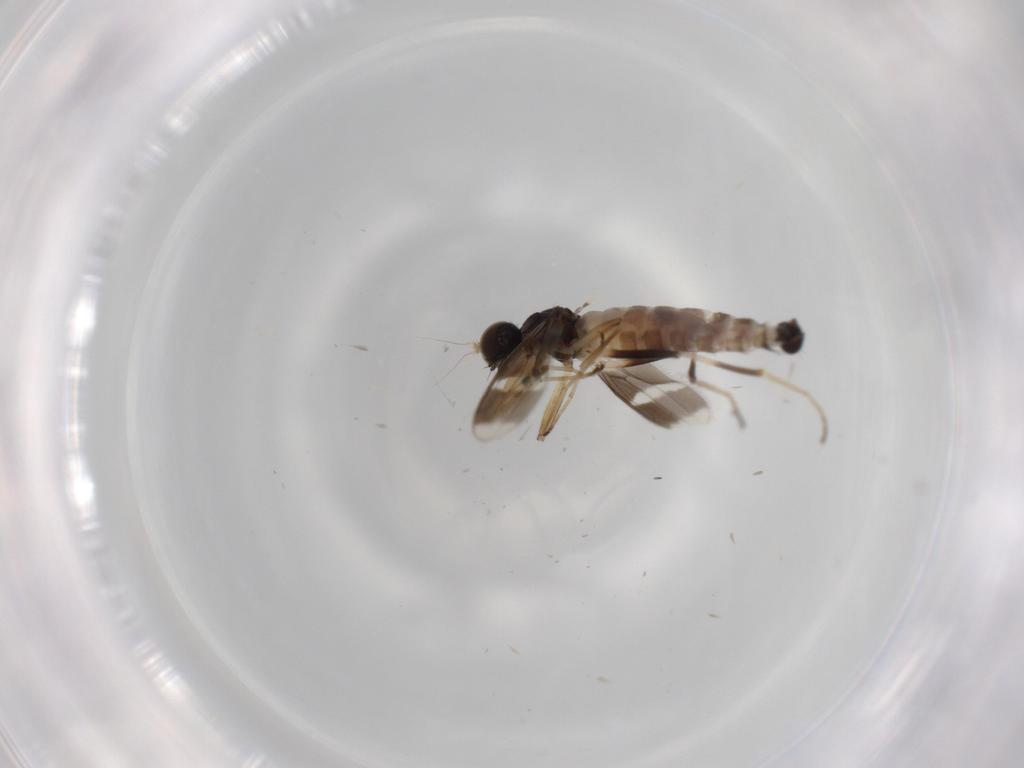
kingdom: Animalia
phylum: Arthropoda
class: Insecta
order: Diptera
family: Hybotidae
